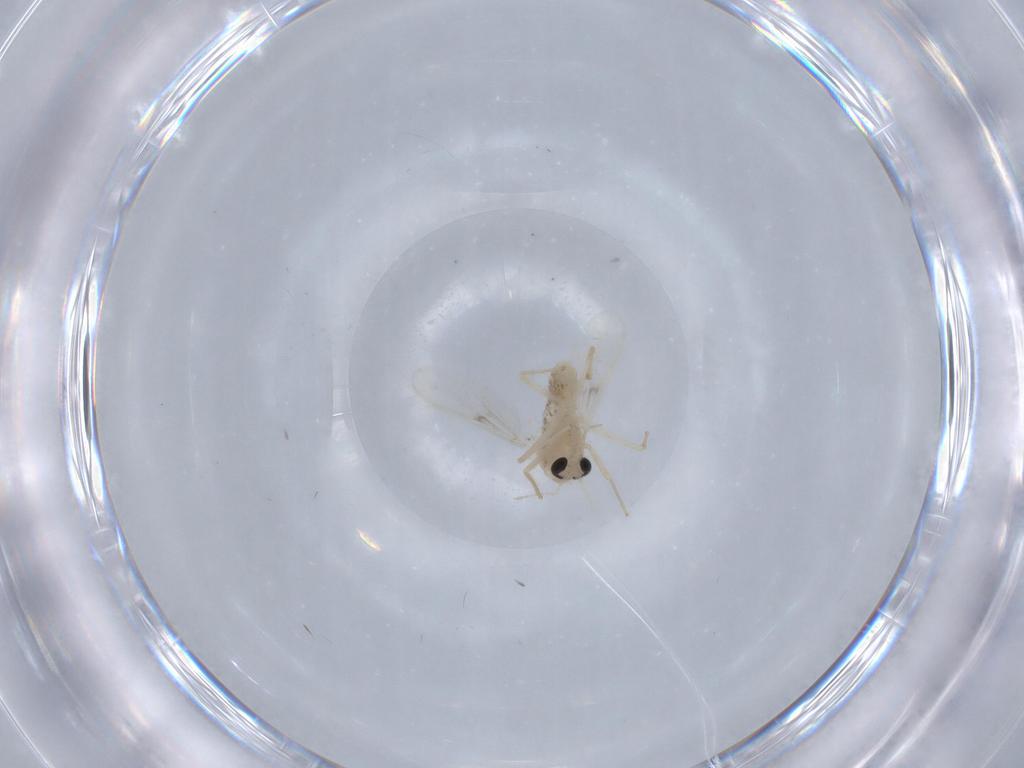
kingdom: Animalia
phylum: Arthropoda
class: Insecta
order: Diptera
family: Chironomidae
